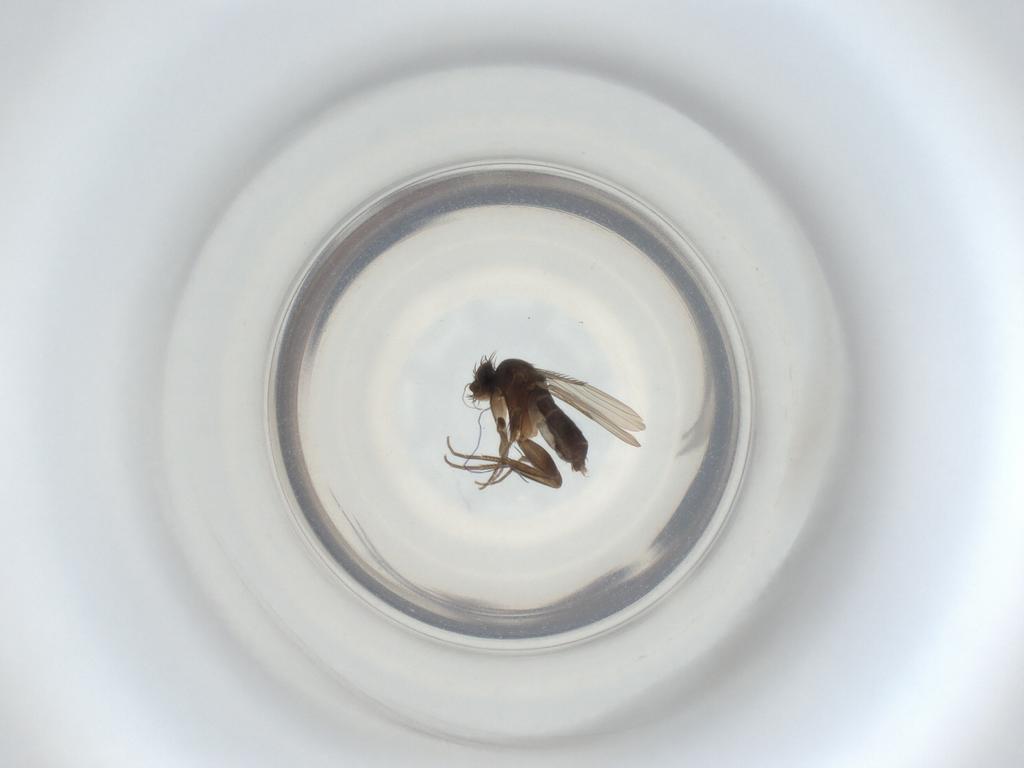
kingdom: Animalia
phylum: Arthropoda
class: Insecta
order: Diptera
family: Phoridae
